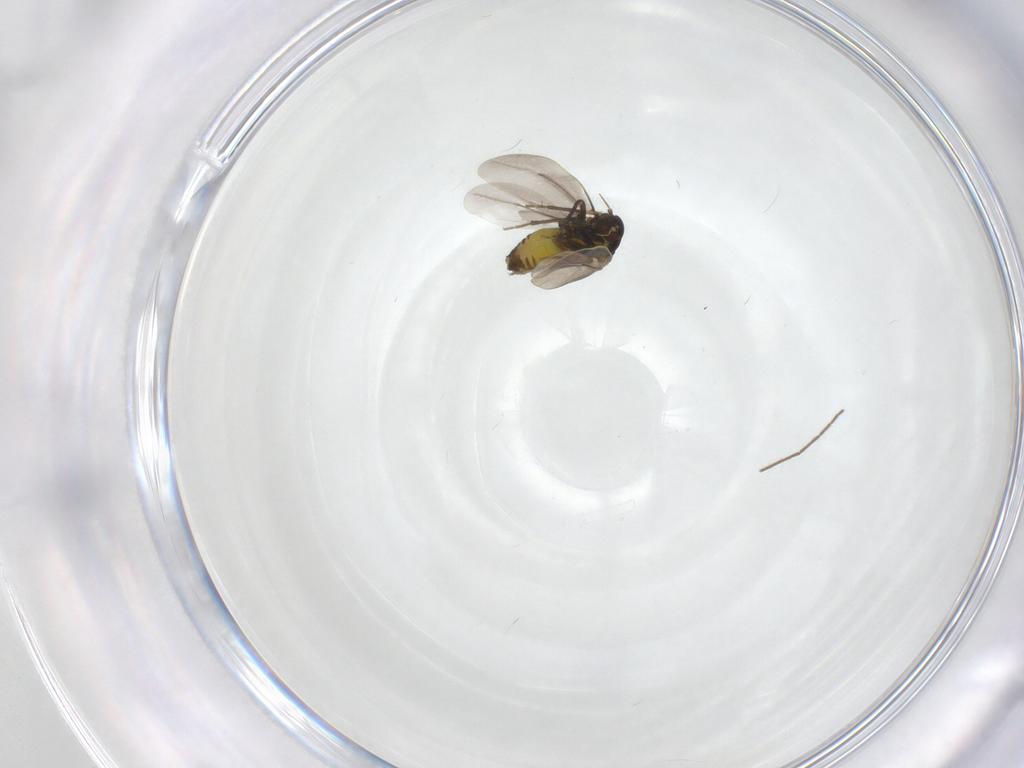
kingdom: Animalia
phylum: Arthropoda
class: Insecta
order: Hemiptera
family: Aleyrodidae
